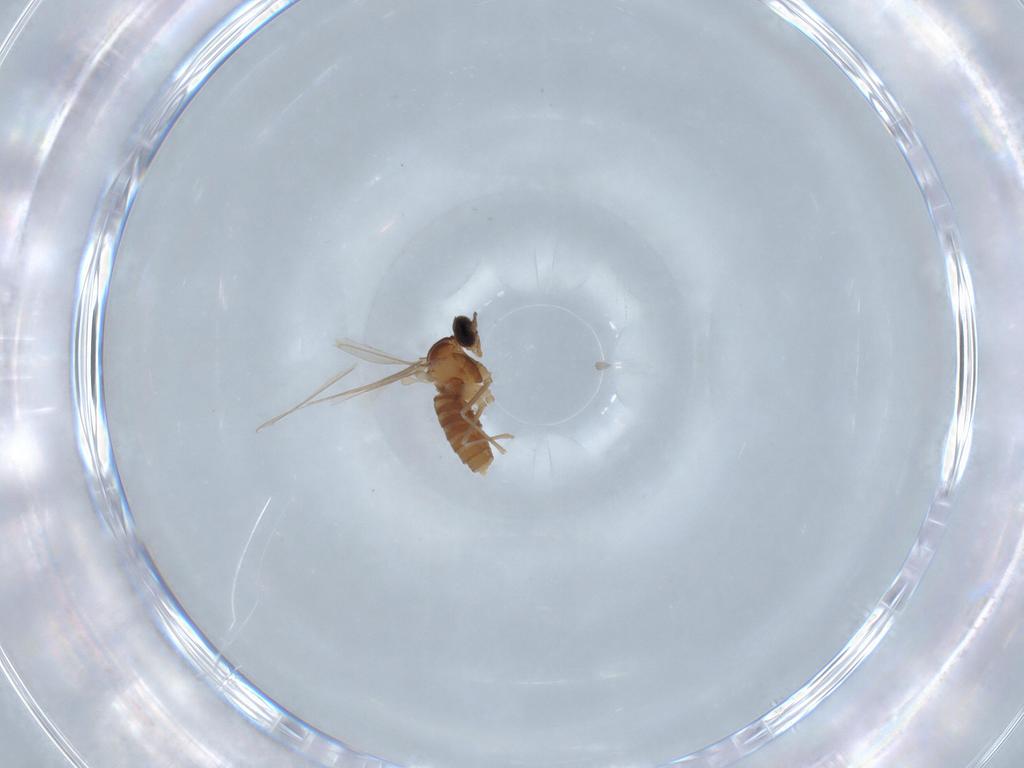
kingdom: Animalia
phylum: Arthropoda
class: Insecta
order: Diptera
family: Cecidomyiidae
